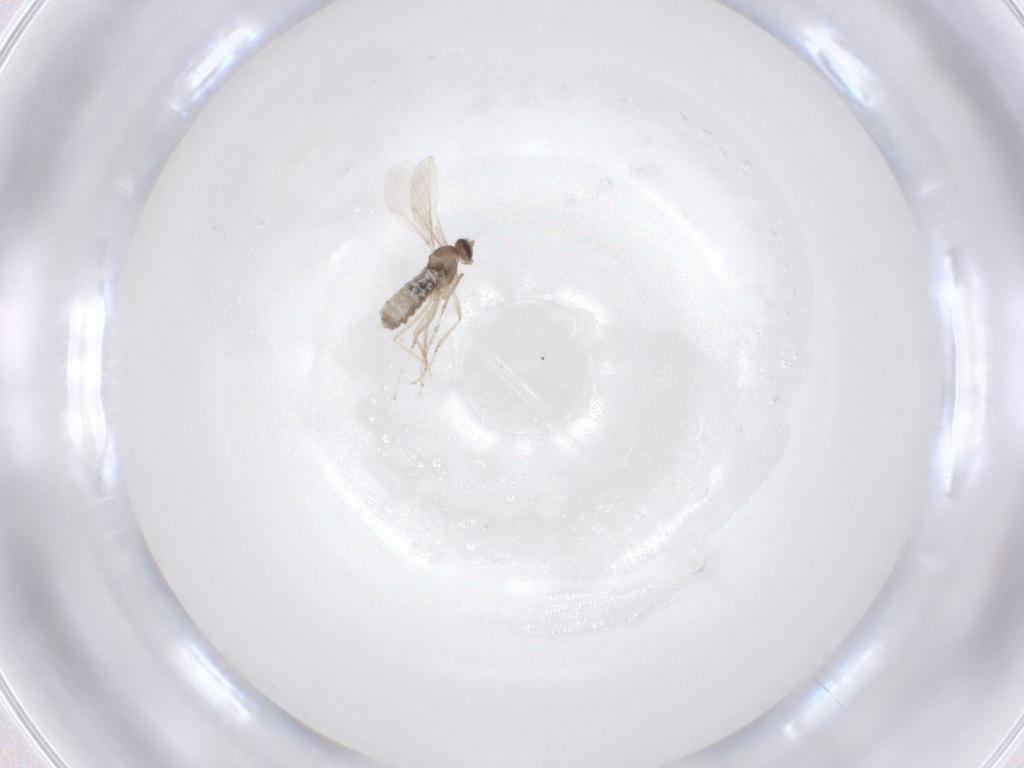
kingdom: Animalia
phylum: Arthropoda
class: Insecta
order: Diptera
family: Cecidomyiidae
